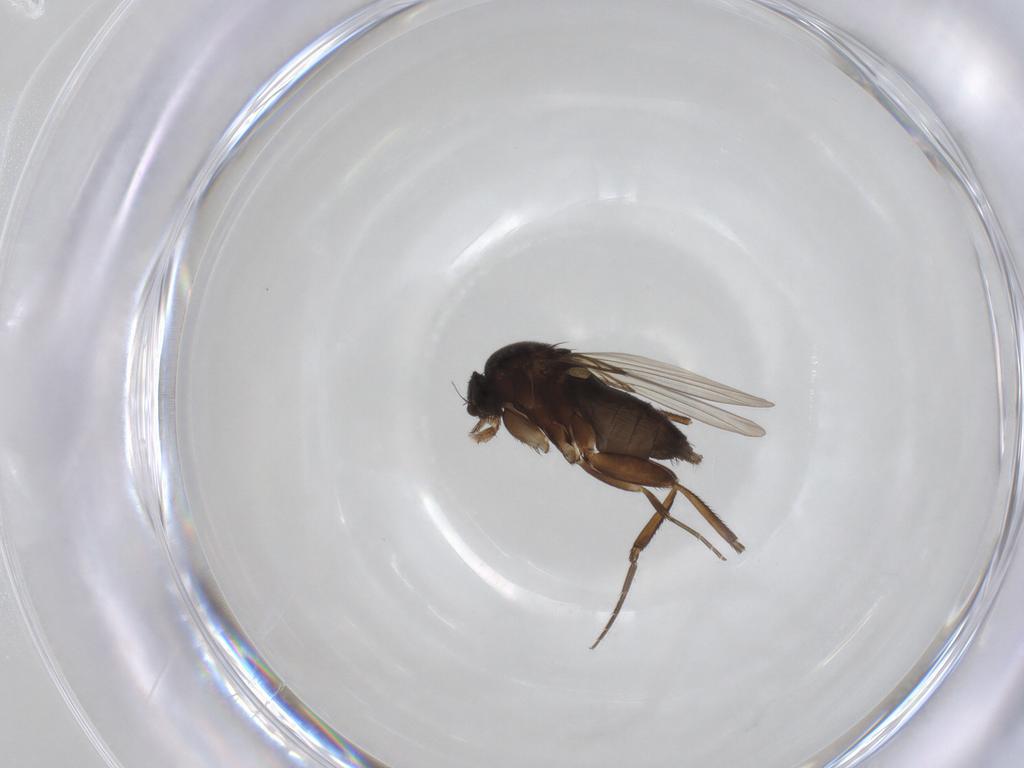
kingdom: Animalia
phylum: Arthropoda
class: Insecta
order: Diptera
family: Phoridae
